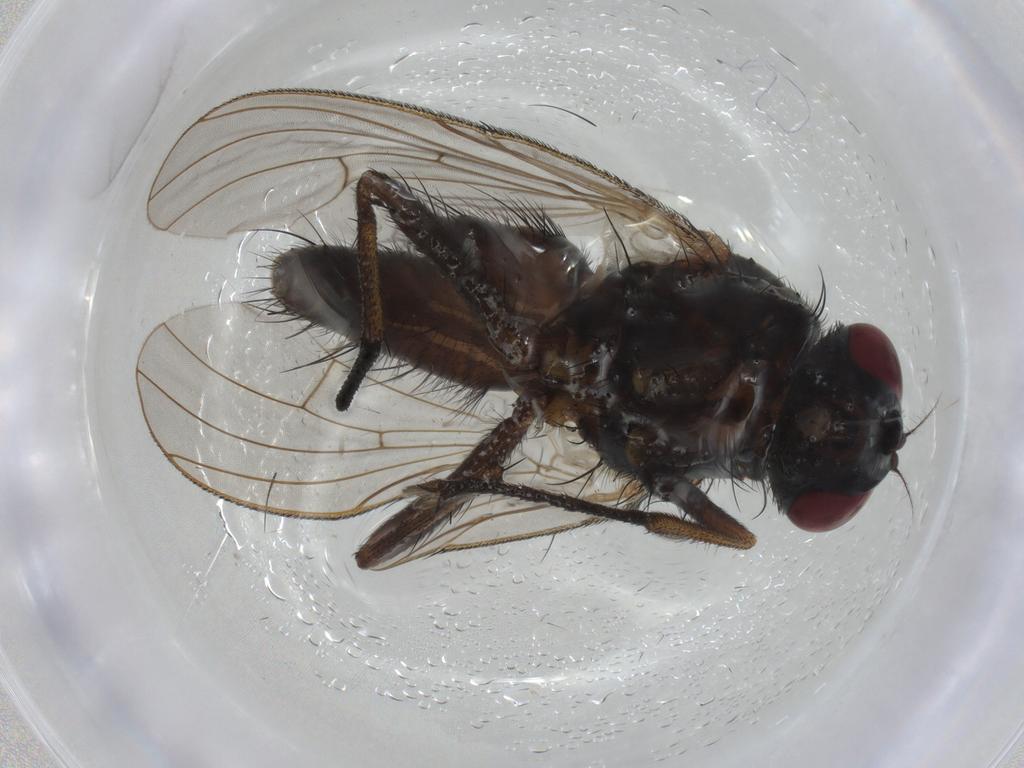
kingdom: Animalia
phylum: Arthropoda
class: Insecta
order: Diptera
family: Muscidae
